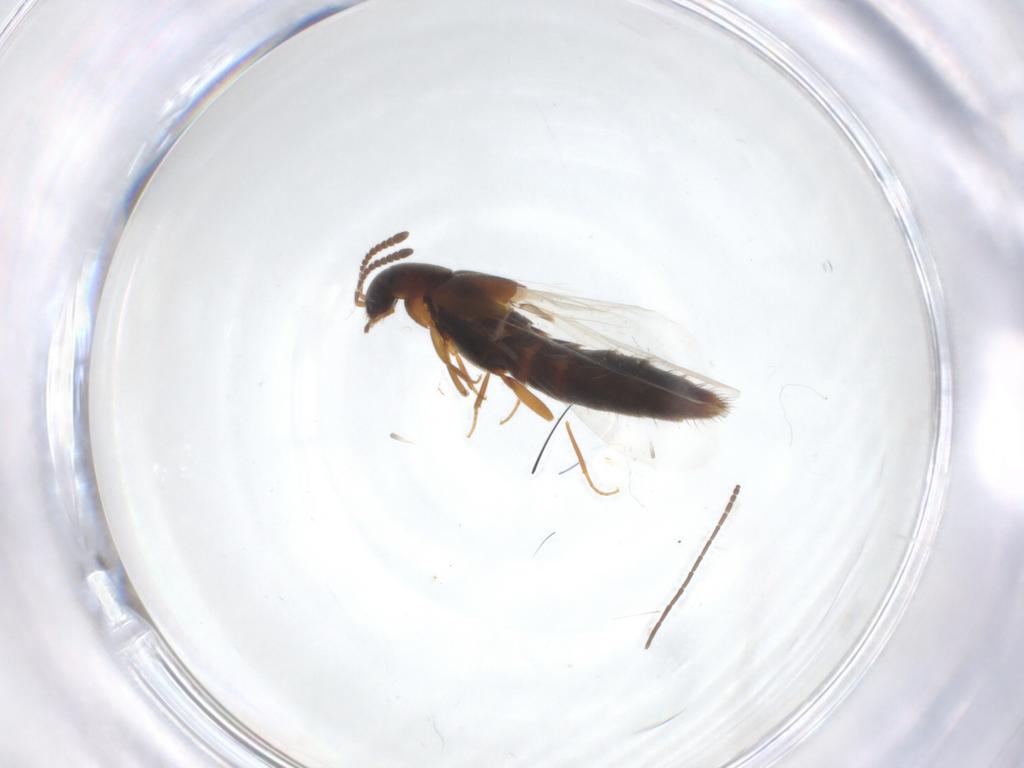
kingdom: Animalia
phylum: Arthropoda
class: Insecta
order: Coleoptera
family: Staphylinidae
